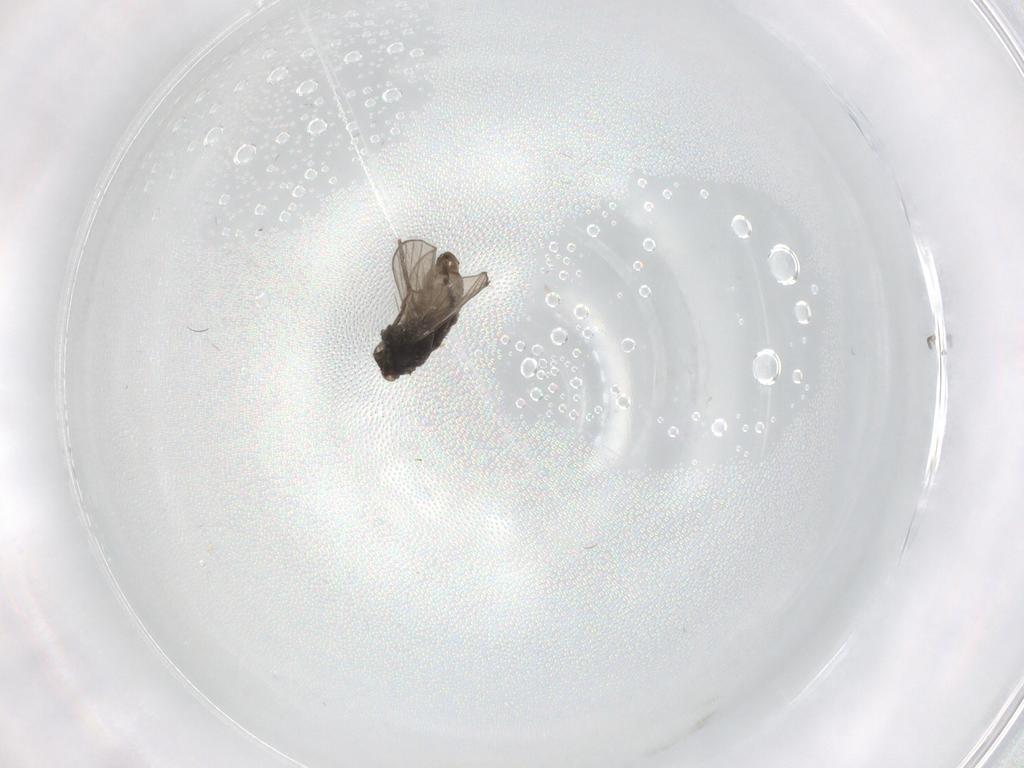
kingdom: Animalia
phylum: Arthropoda
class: Insecta
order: Diptera
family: Psychodidae
